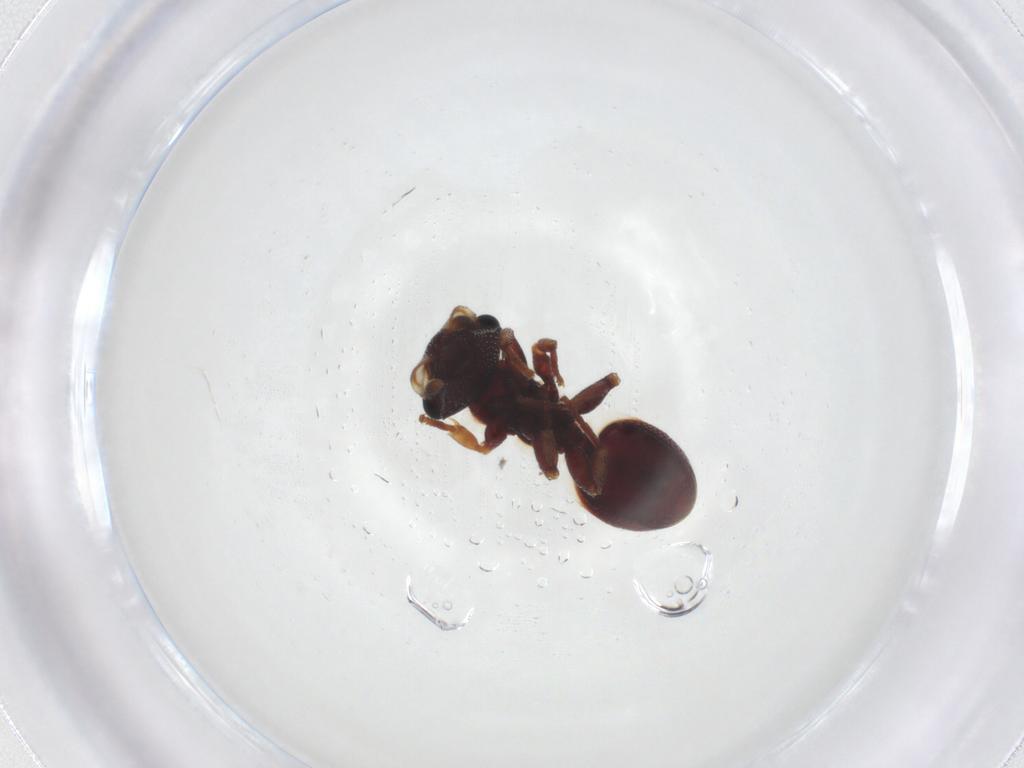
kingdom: Animalia
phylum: Arthropoda
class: Insecta
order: Hymenoptera
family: Formicidae
